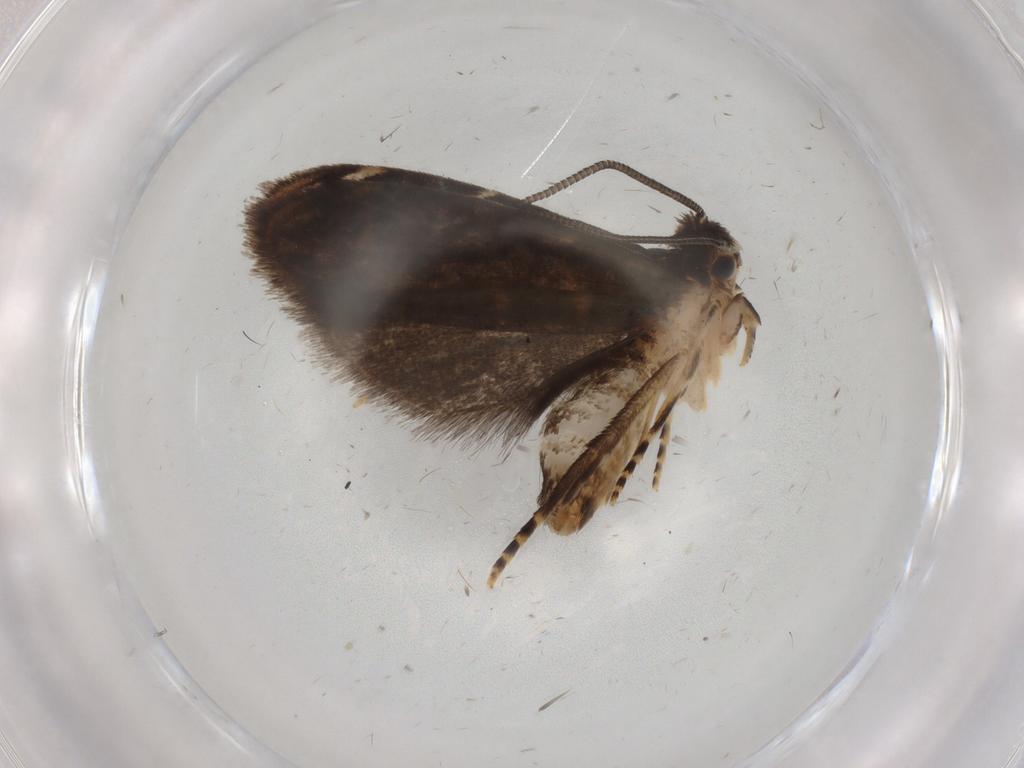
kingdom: Animalia
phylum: Arthropoda
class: Insecta
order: Lepidoptera
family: Dryadaulidae
